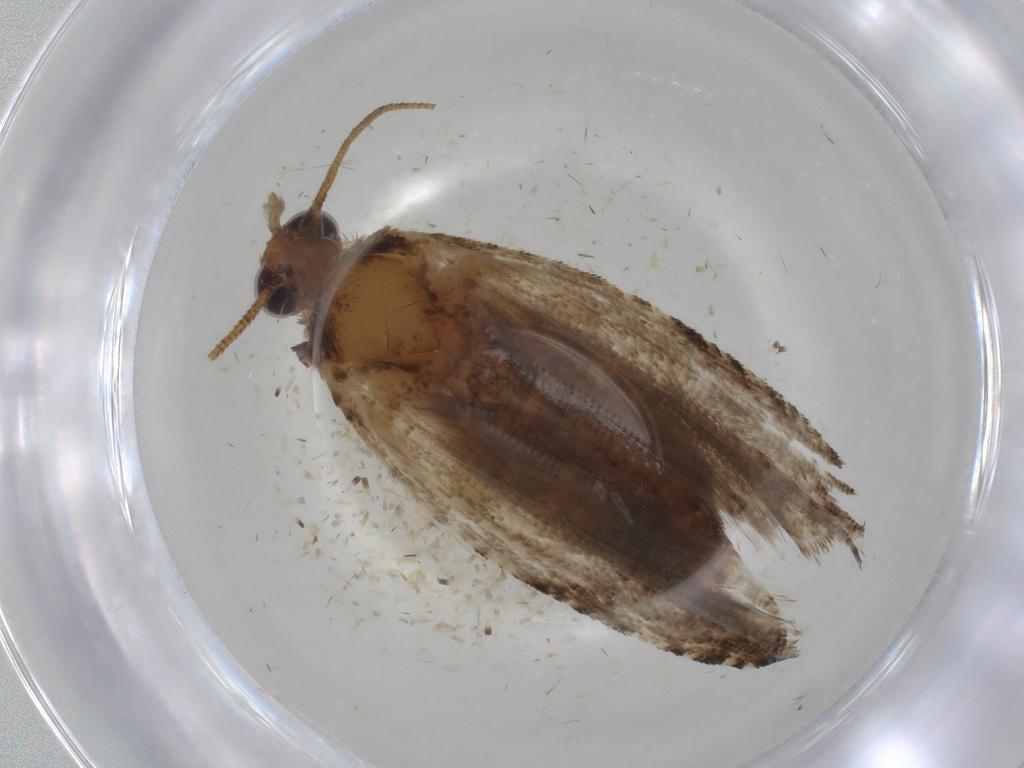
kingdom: Animalia
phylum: Arthropoda
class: Insecta
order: Lepidoptera
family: Tortricidae
